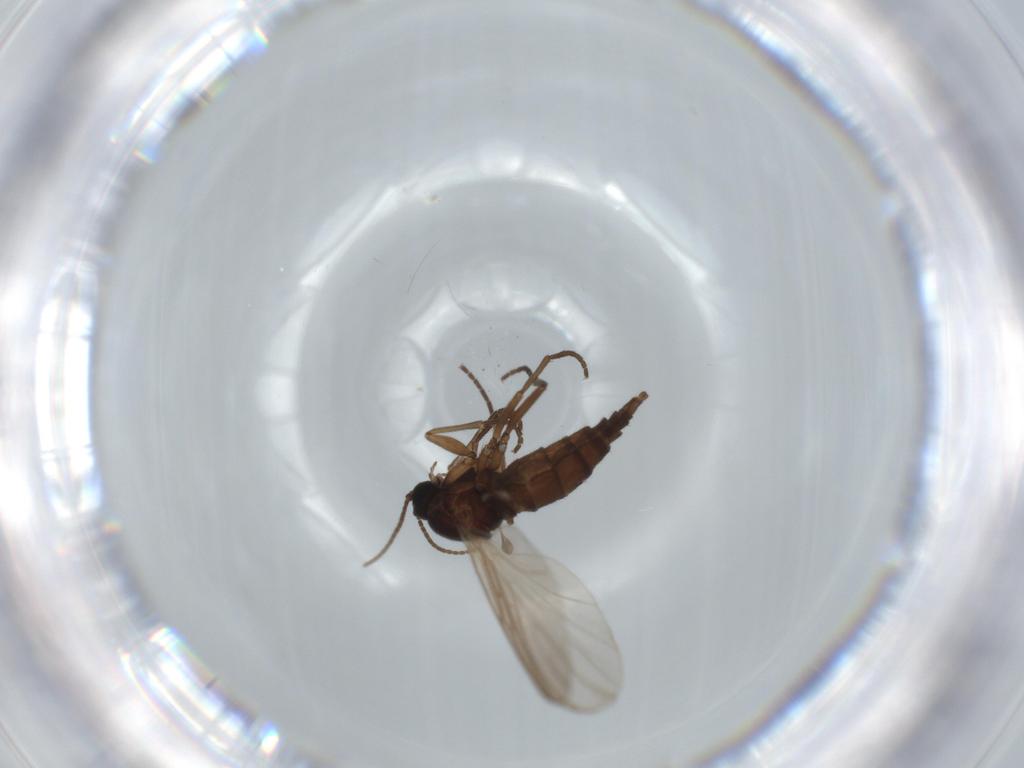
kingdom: Animalia
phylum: Arthropoda
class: Insecta
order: Diptera
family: Sciaridae
